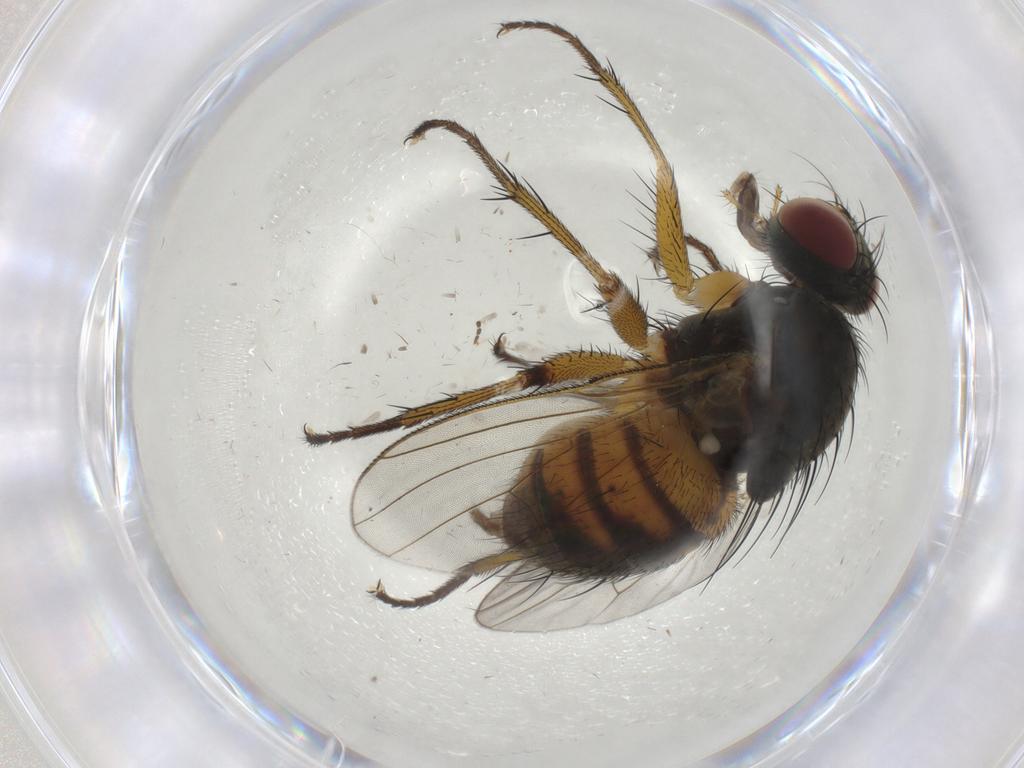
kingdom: Animalia
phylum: Arthropoda
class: Insecta
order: Diptera
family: Muscidae
